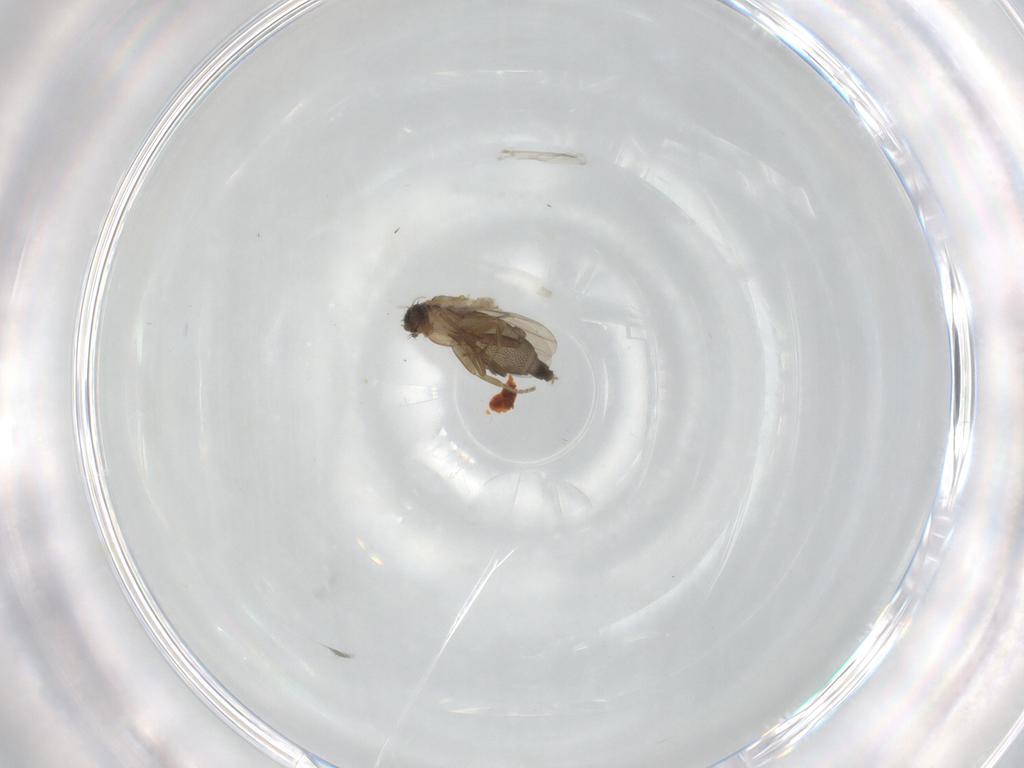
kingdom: Animalia
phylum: Arthropoda
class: Insecta
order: Diptera
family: Phoridae
